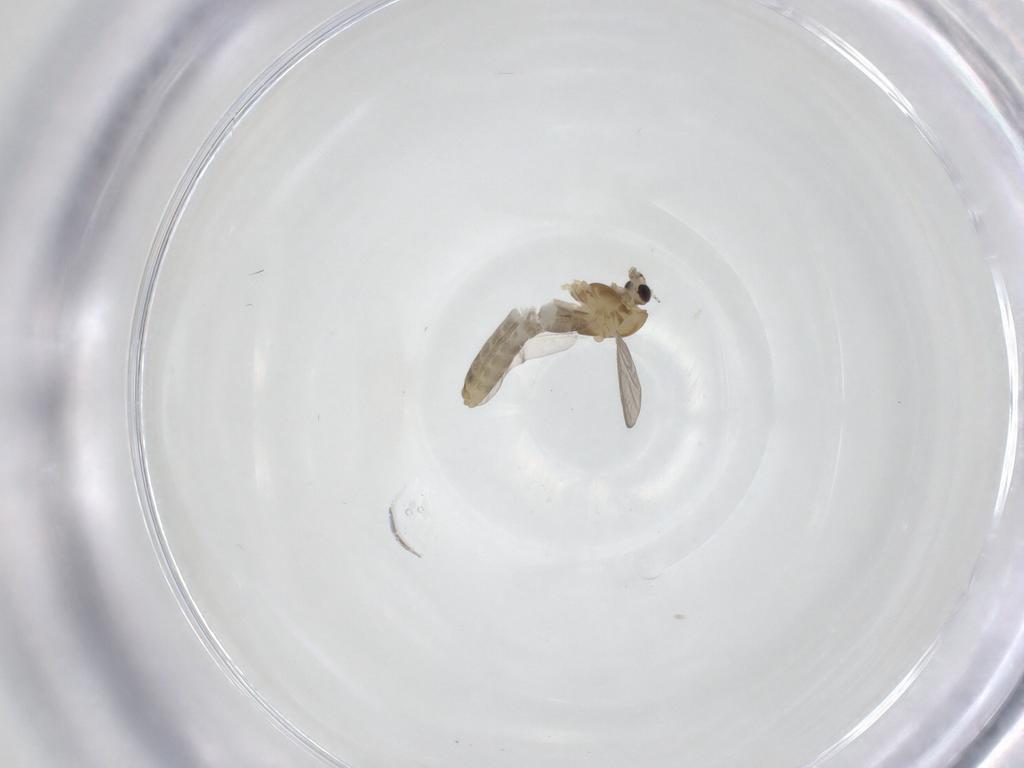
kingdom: Animalia
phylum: Arthropoda
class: Insecta
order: Diptera
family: Chironomidae
